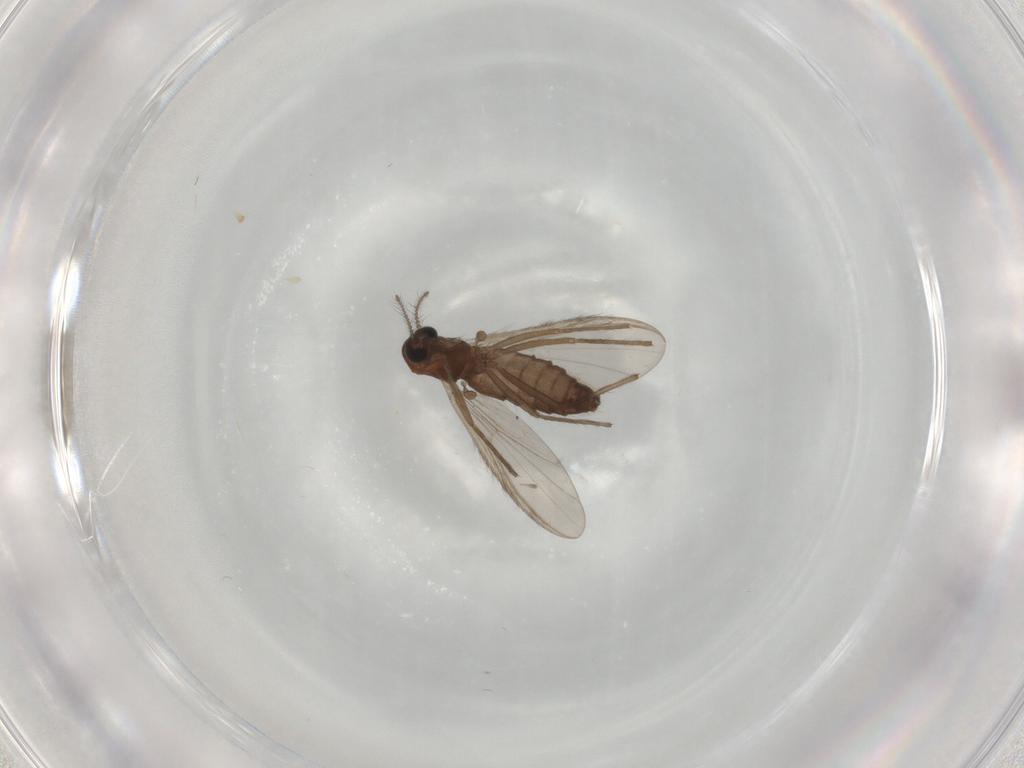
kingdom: Animalia
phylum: Arthropoda
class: Insecta
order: Diptera
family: Chironomidae
